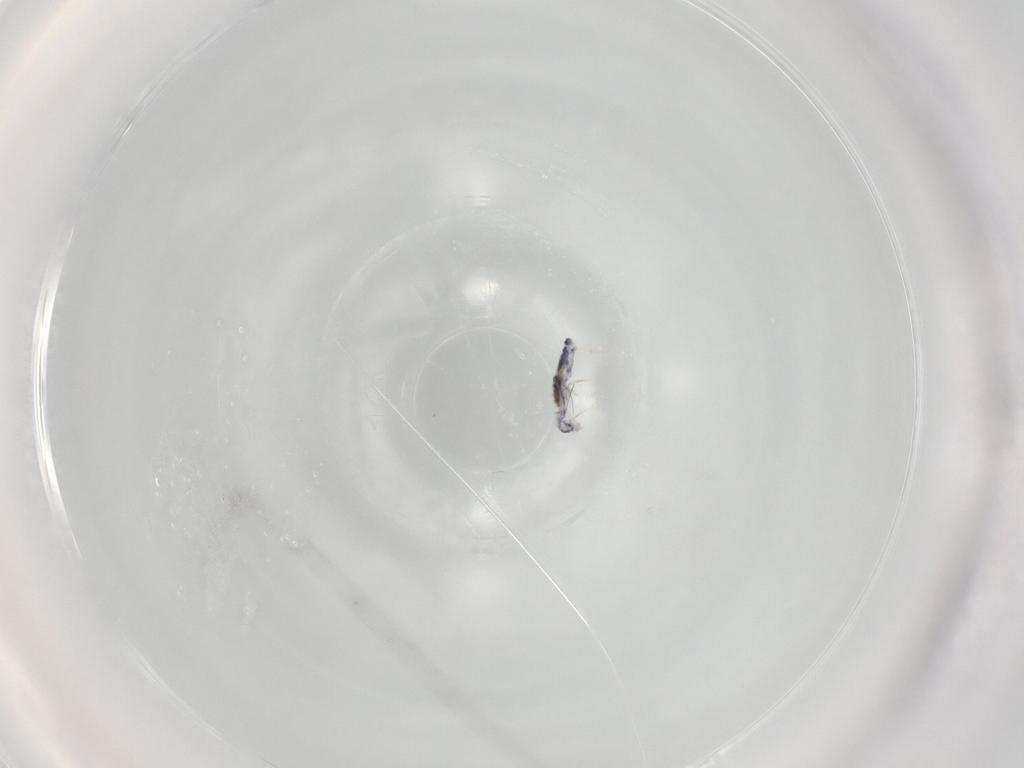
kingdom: Animalia
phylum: Arthropoda
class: Collembola
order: Entomobryomorpha
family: Entomobryidae
